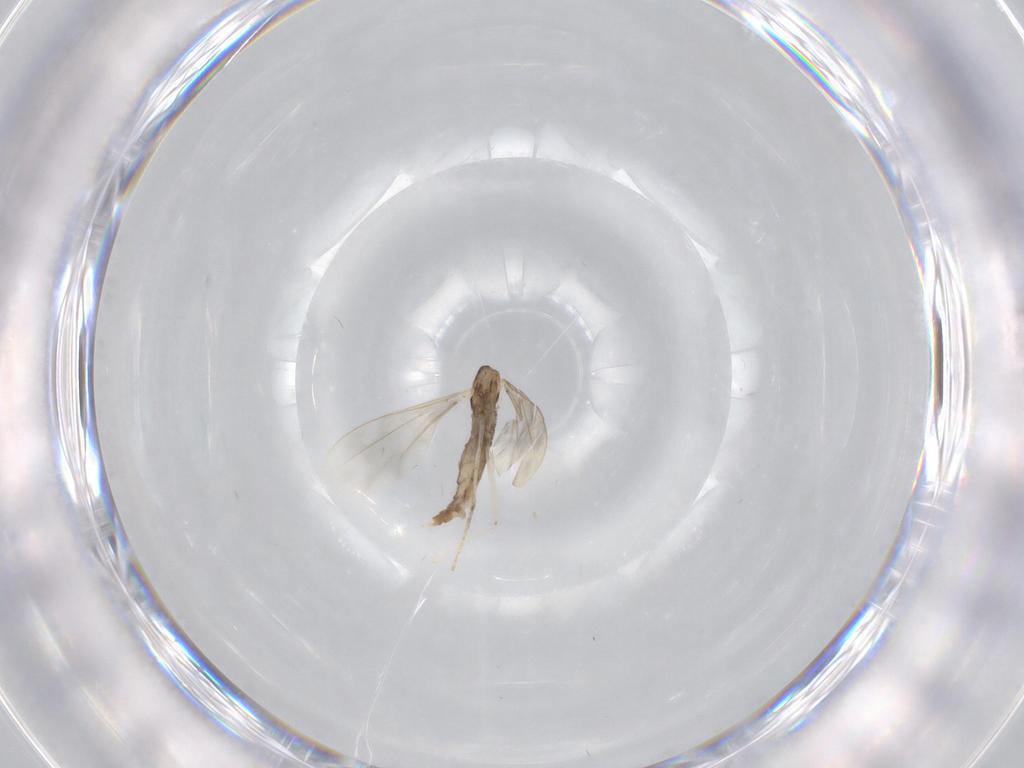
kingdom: Animalia
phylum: Arthropoda
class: Insecta
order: Diptera
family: Cecidomyiidae
